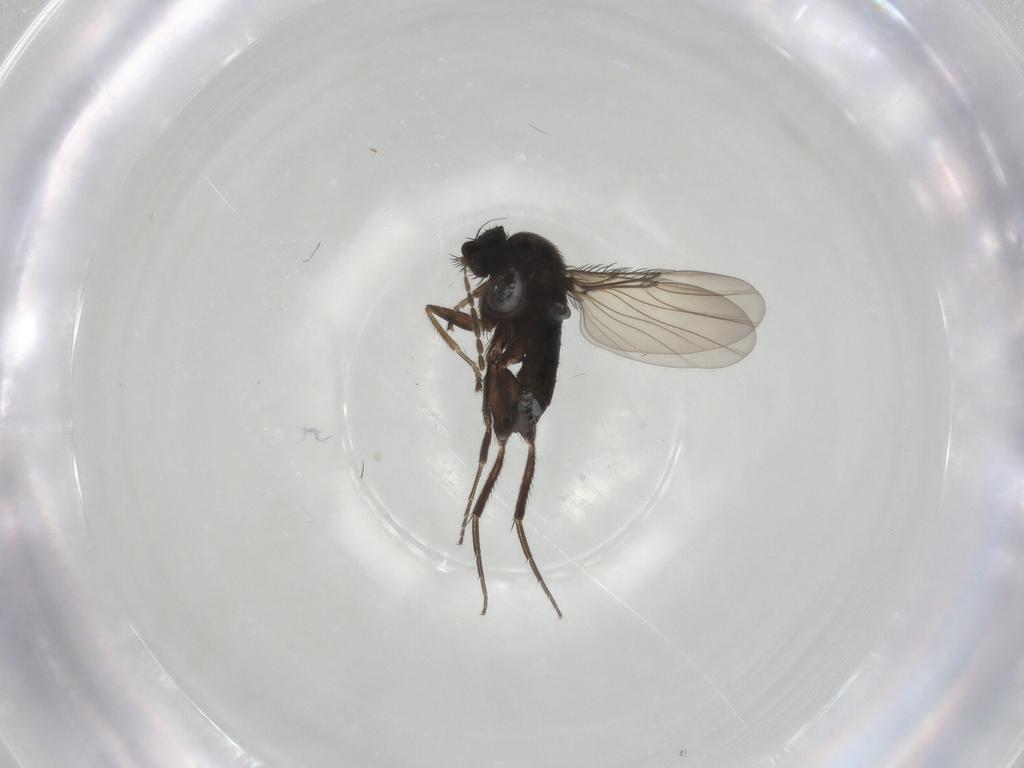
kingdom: Animalia
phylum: Arthropoda
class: Insecta
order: Diptera
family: Phoridae
